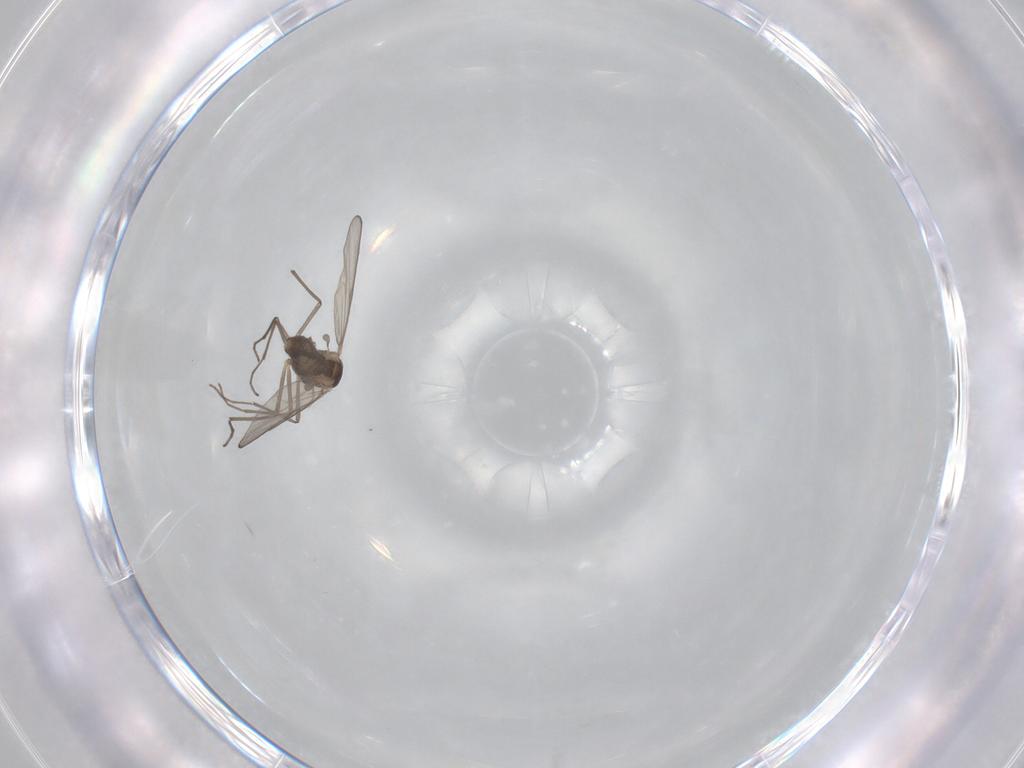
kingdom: Animalia
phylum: Arthropoda
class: Insecta
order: Diptera
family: Chironomidae
